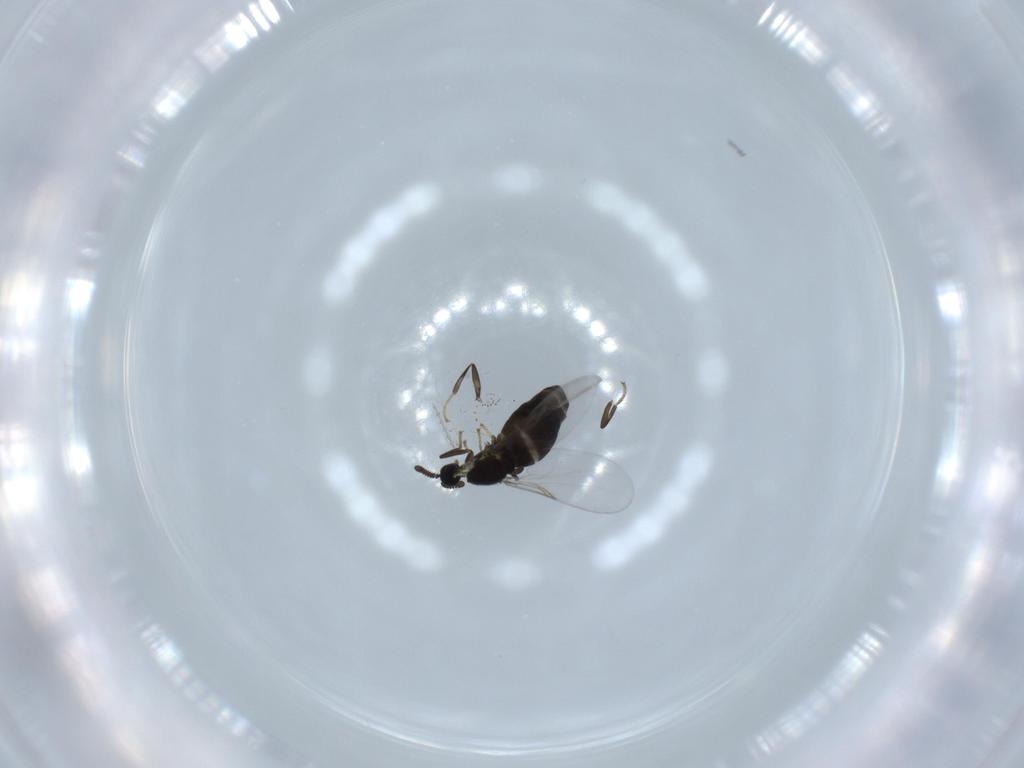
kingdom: Animalia
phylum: Arthropoda
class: Insecta
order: Diptera
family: Scatopsidae
